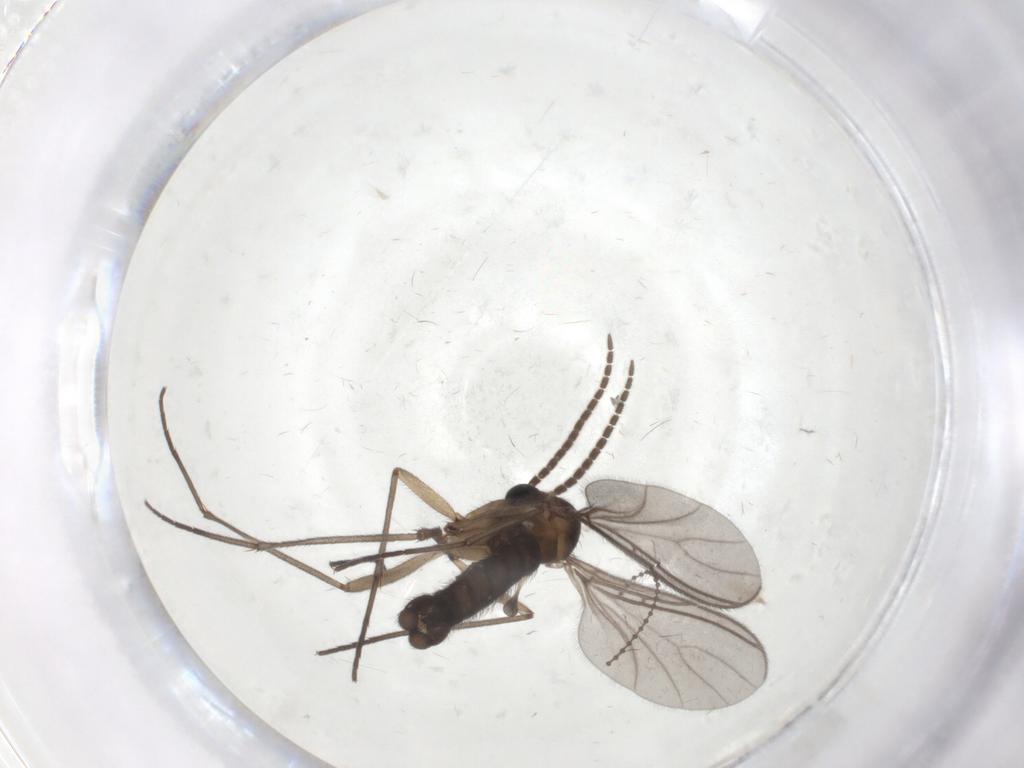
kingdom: Animalia
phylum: Arthropoda
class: Insecta
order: Diptera
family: Sciaridae
